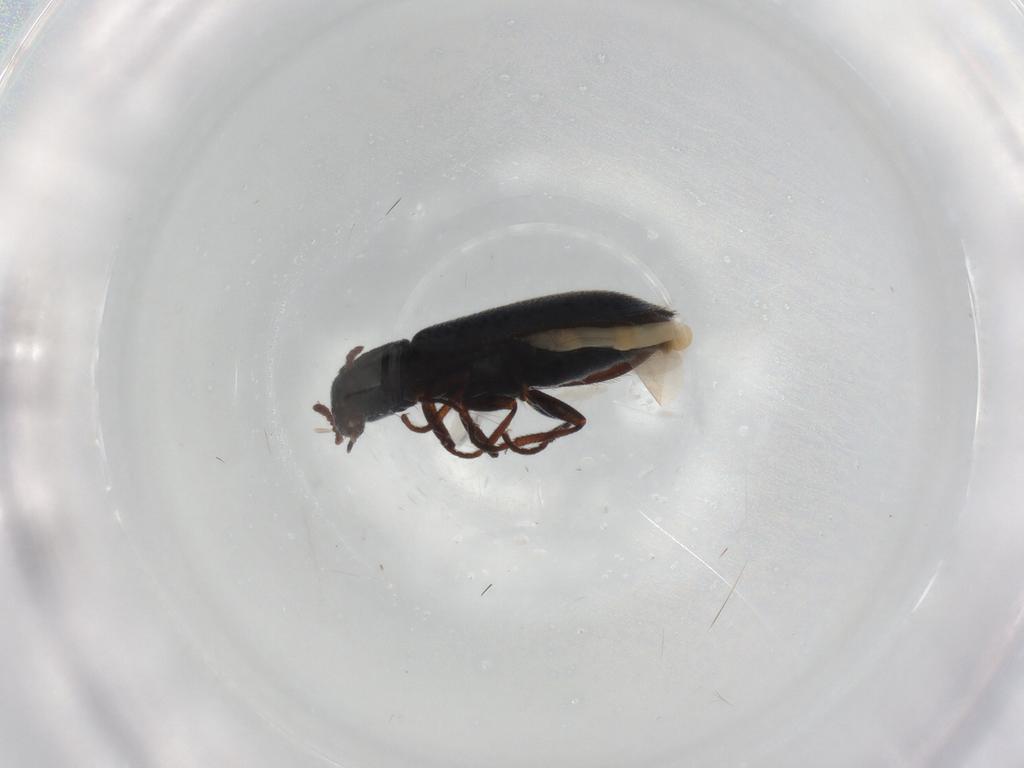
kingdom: Animalia
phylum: Arthropoda
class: Insecta
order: Coleoptera
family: Melyridae
